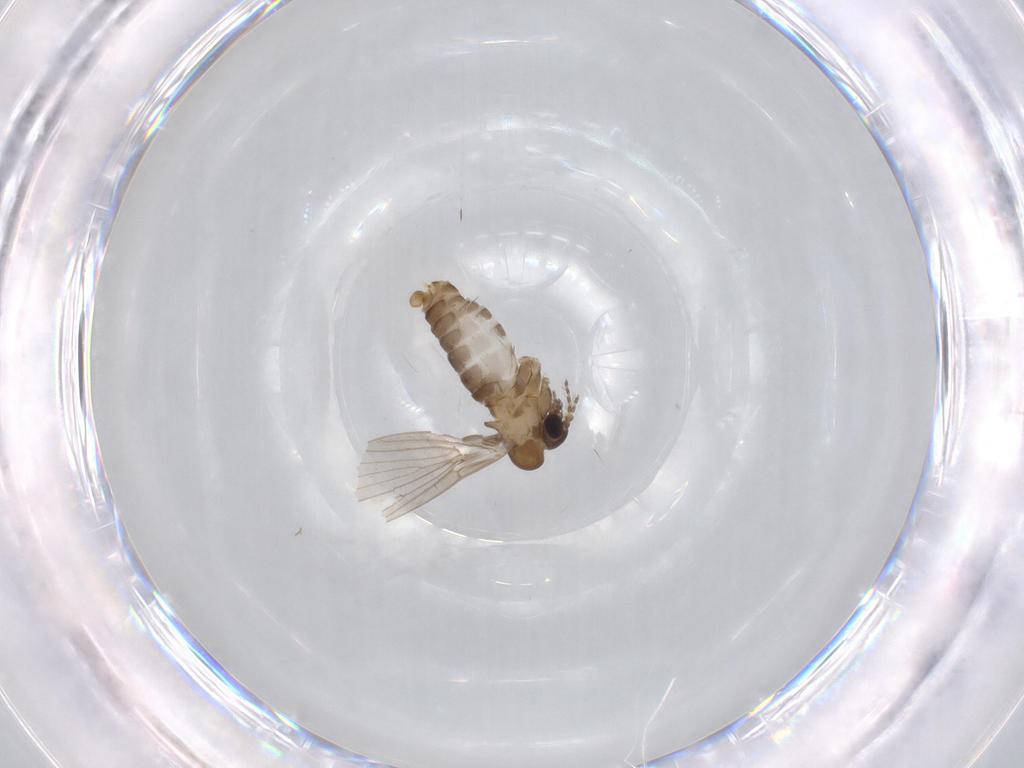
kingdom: Animalia
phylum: Arthropoda
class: Insecta
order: Diptera
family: Psychodidae
